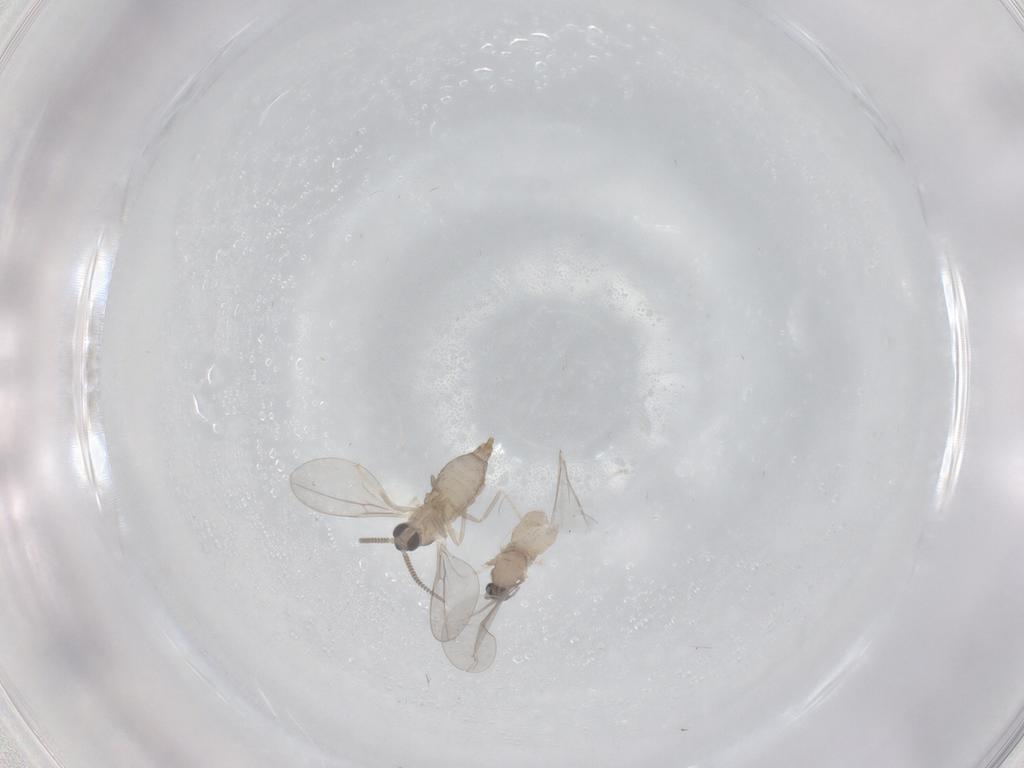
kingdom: Animalia
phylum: Arthropoda
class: Insecta
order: Diptera
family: Cecidomyiidae
